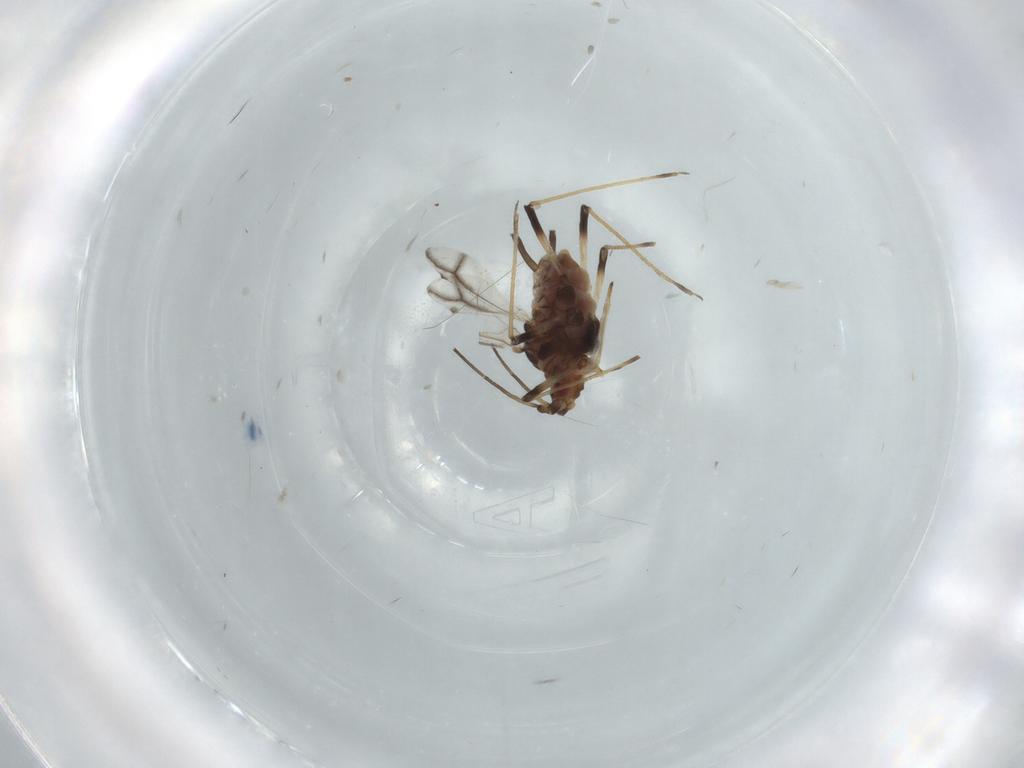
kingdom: Animalia
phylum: Arthropoda
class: Insecta
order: Hemiptera
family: Aphididae
